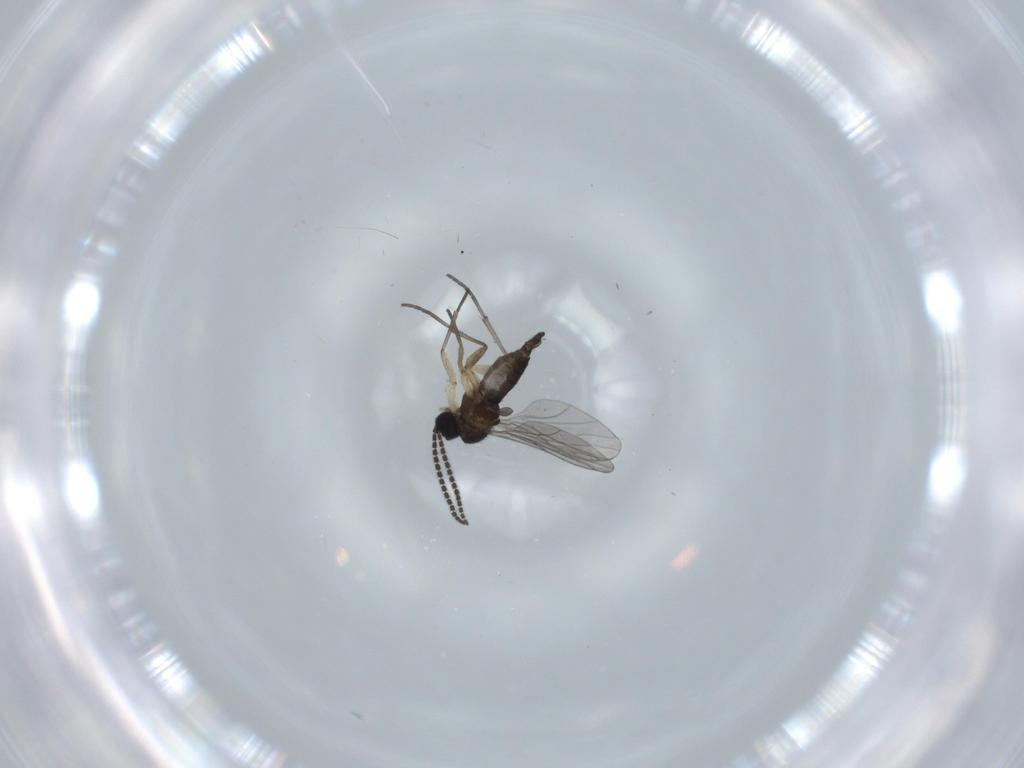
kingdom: Animalia
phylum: Arthropoda
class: Insecta
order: Diptera
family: Sciaridae
